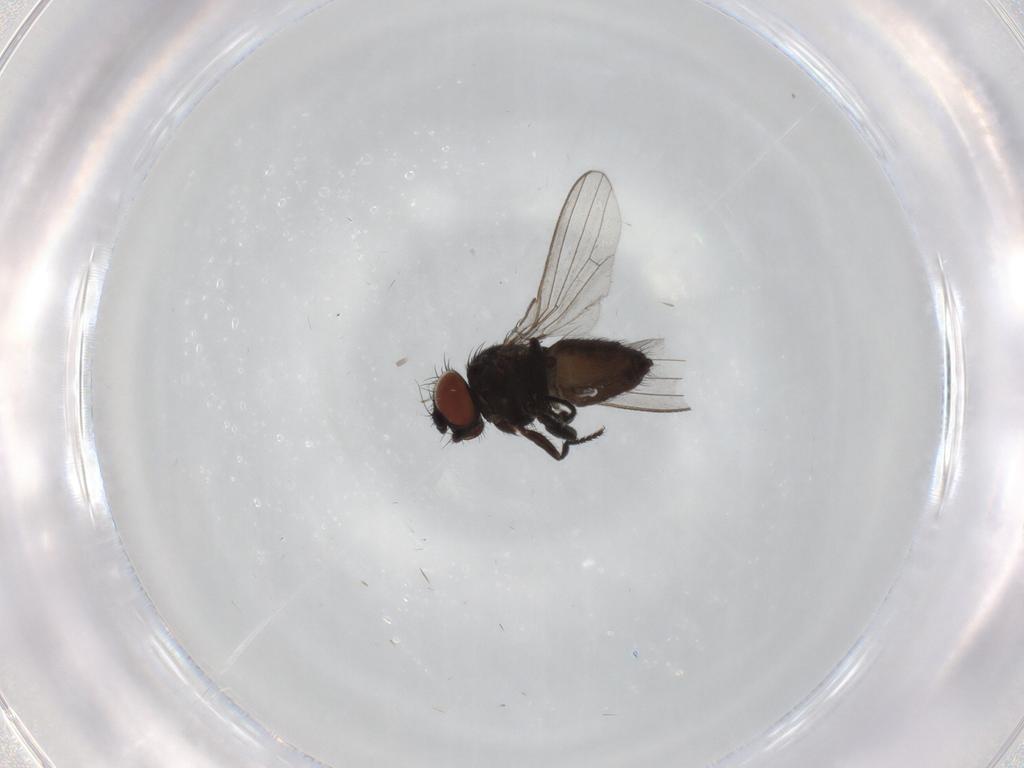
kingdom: Animalia
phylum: Arthropoda
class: Insecta
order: Diptera
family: Milichiidae
